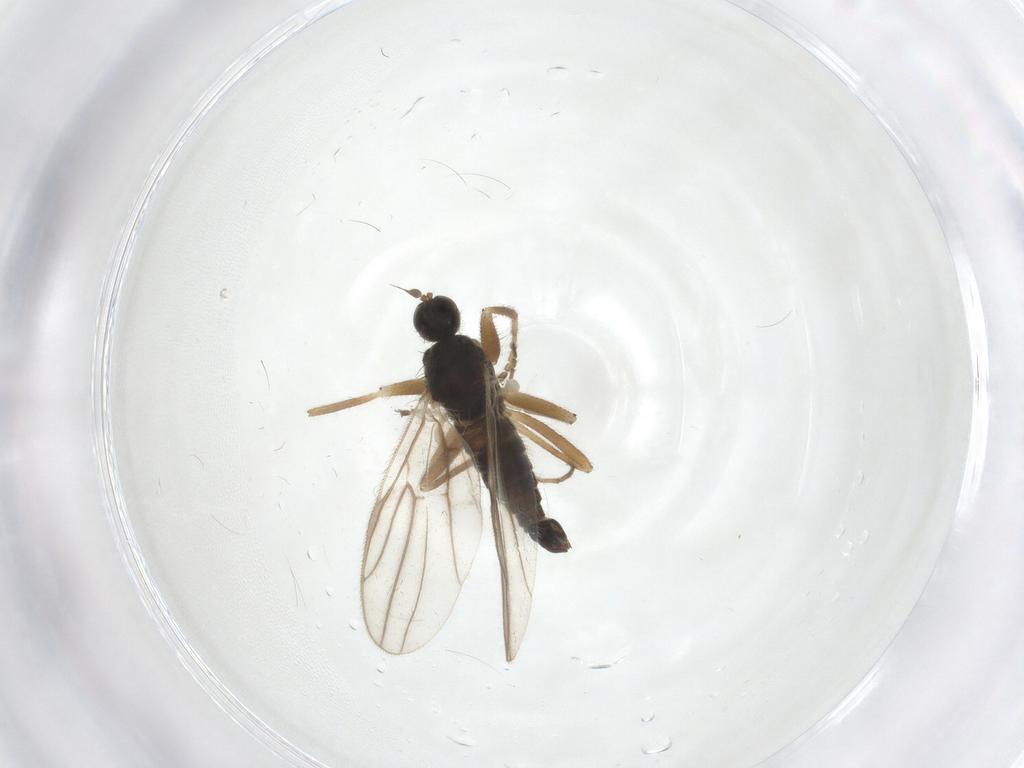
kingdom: Animalia
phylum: Arthropoda
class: Insecta
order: Diptera
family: Hybotidae
